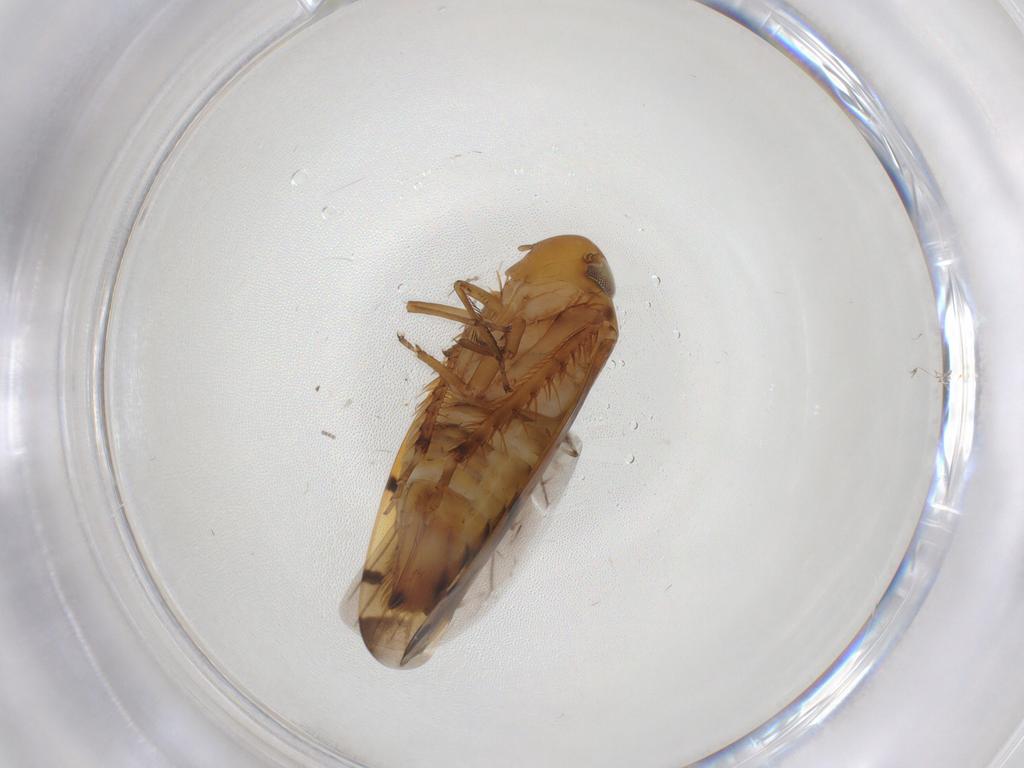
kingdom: Animalia
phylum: Arthropoda
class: Insecta
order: Hemiptera
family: Cicadellidae
